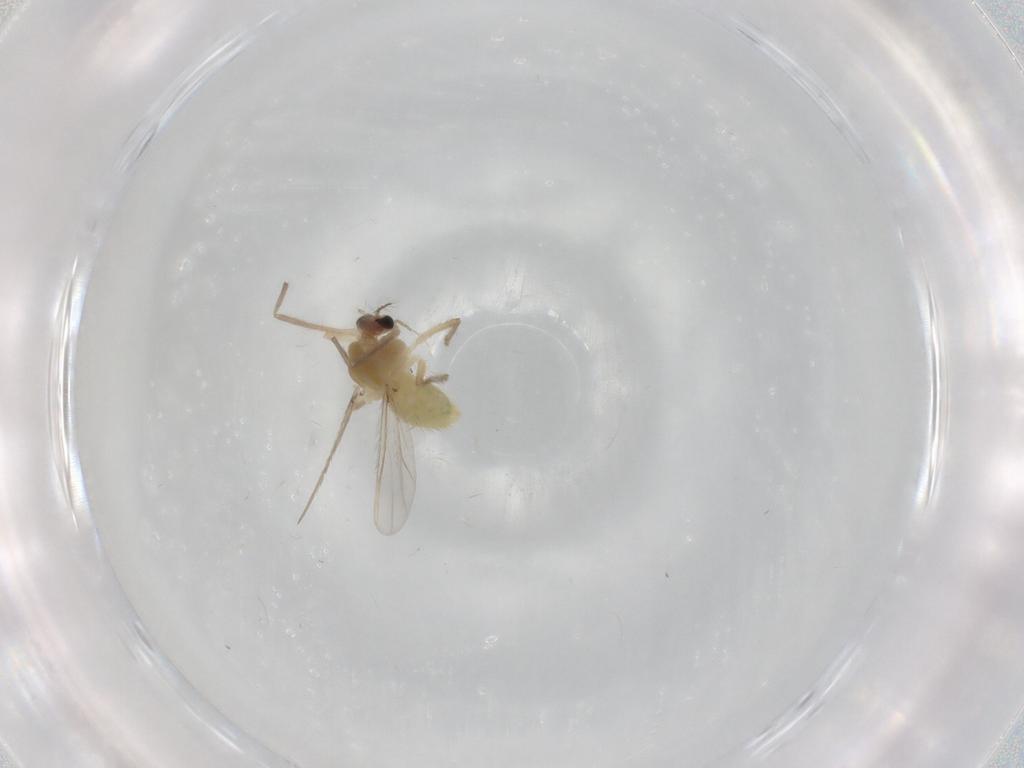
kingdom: Animalia
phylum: Arthropoda
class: Insecta
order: Diptera
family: Chironomidae
